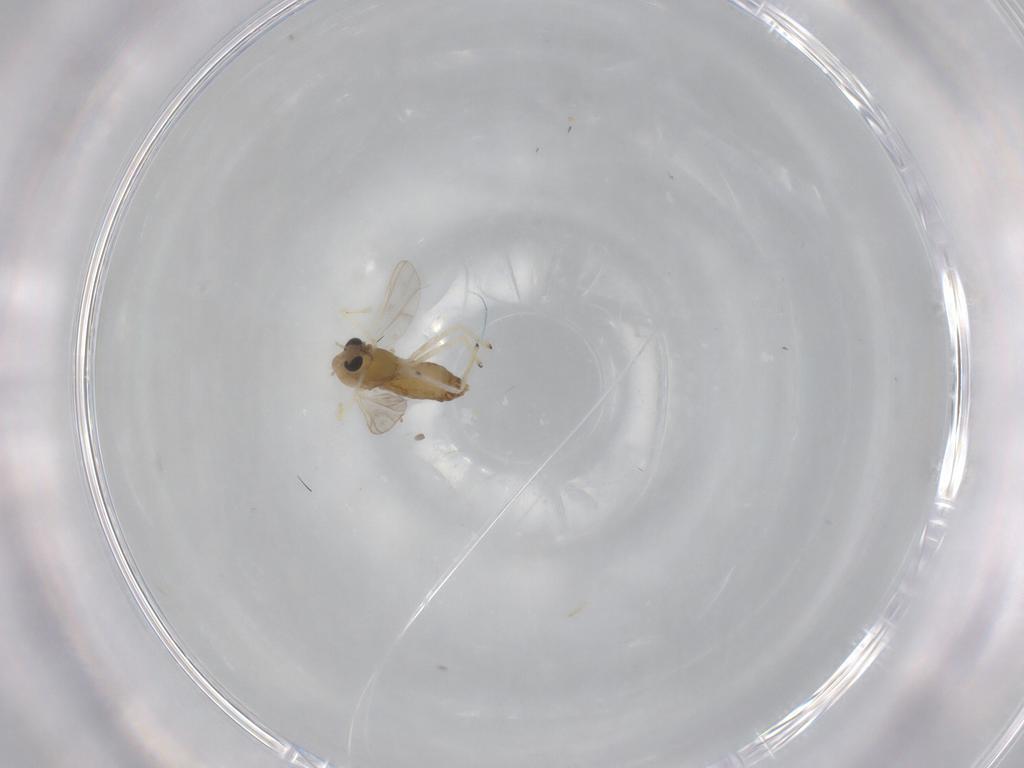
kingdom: Animalia
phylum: Arthropoda
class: Insecta
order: Diptera
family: Chironomidae
